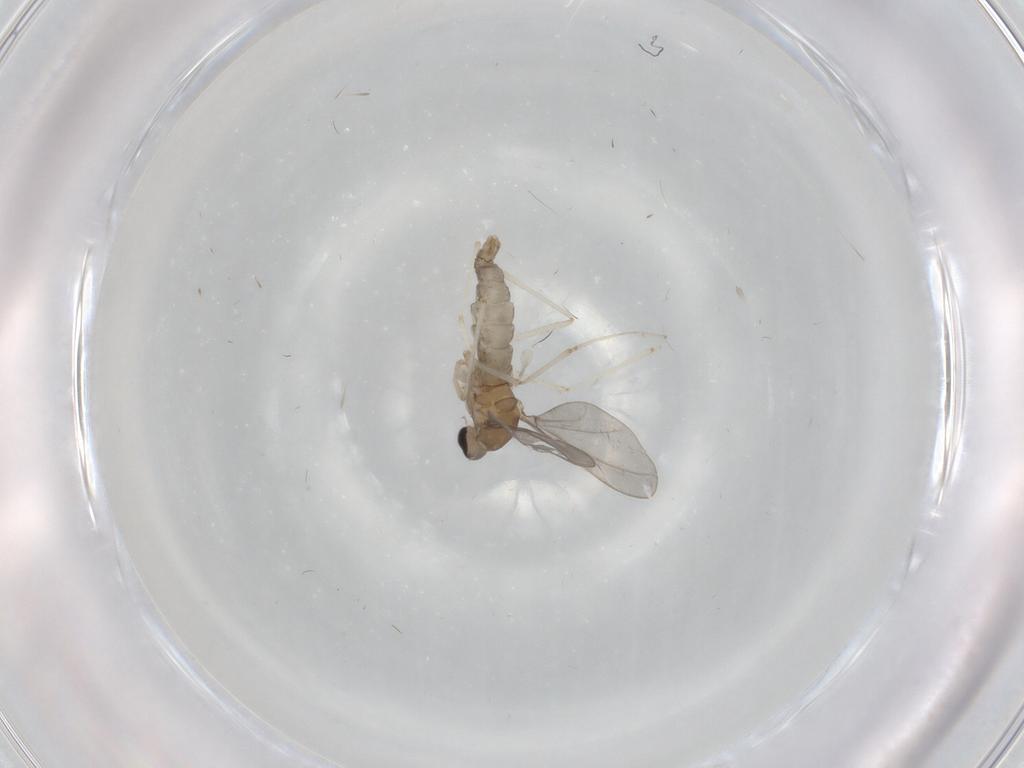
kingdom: Animalia
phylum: Arthropoda
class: Insecta
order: Diptera
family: Cecidomyiidae
